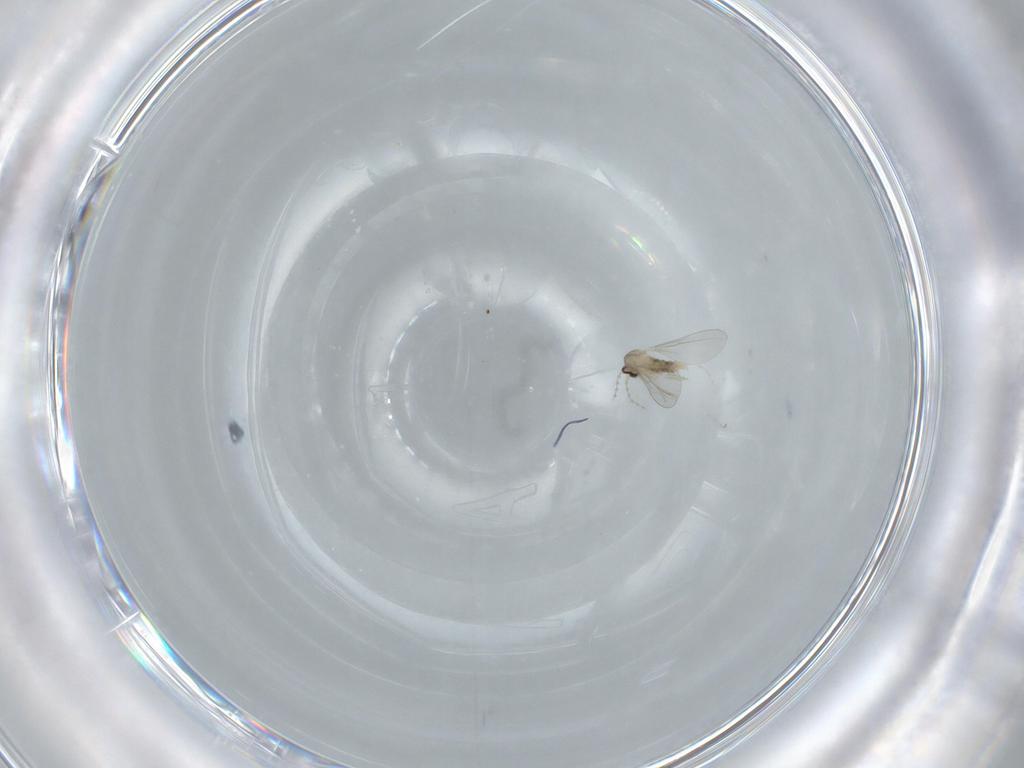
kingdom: Animalia
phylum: Arthropoda
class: Insecta
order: Diptera
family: Cecidomyiidae
